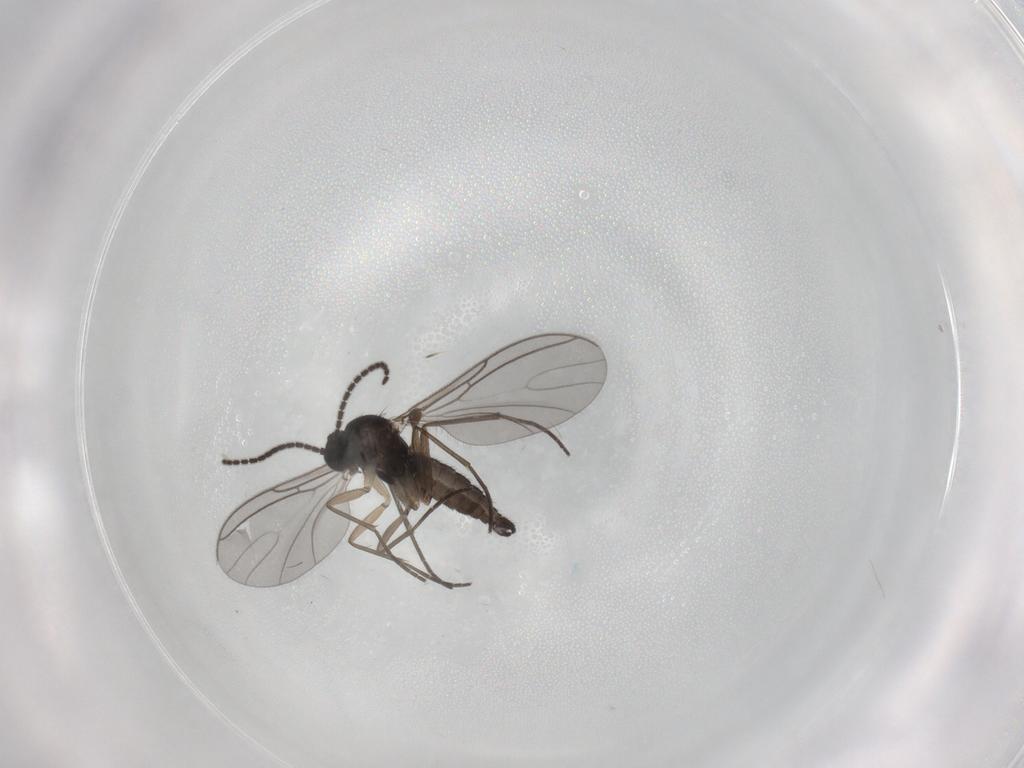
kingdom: Animalia
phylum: Arthropoda
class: Insecta
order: Diptera
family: Sciaridae
